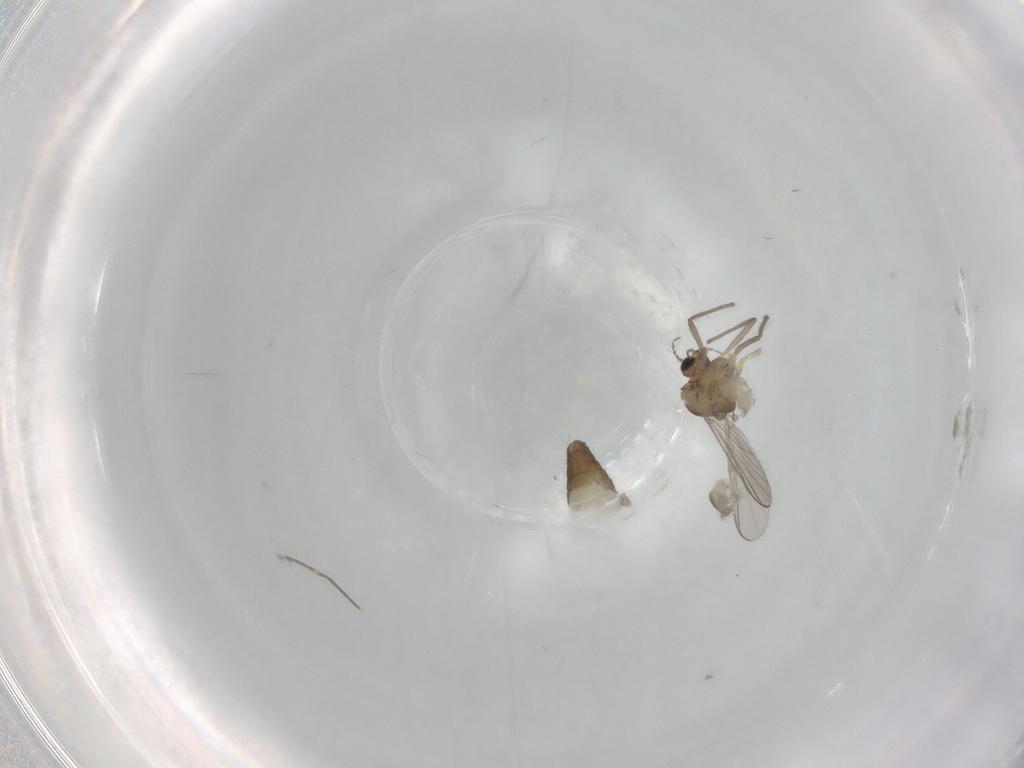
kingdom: Animalia
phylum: Arthropoda
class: Insecta
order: Diptera
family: Chironomidae
